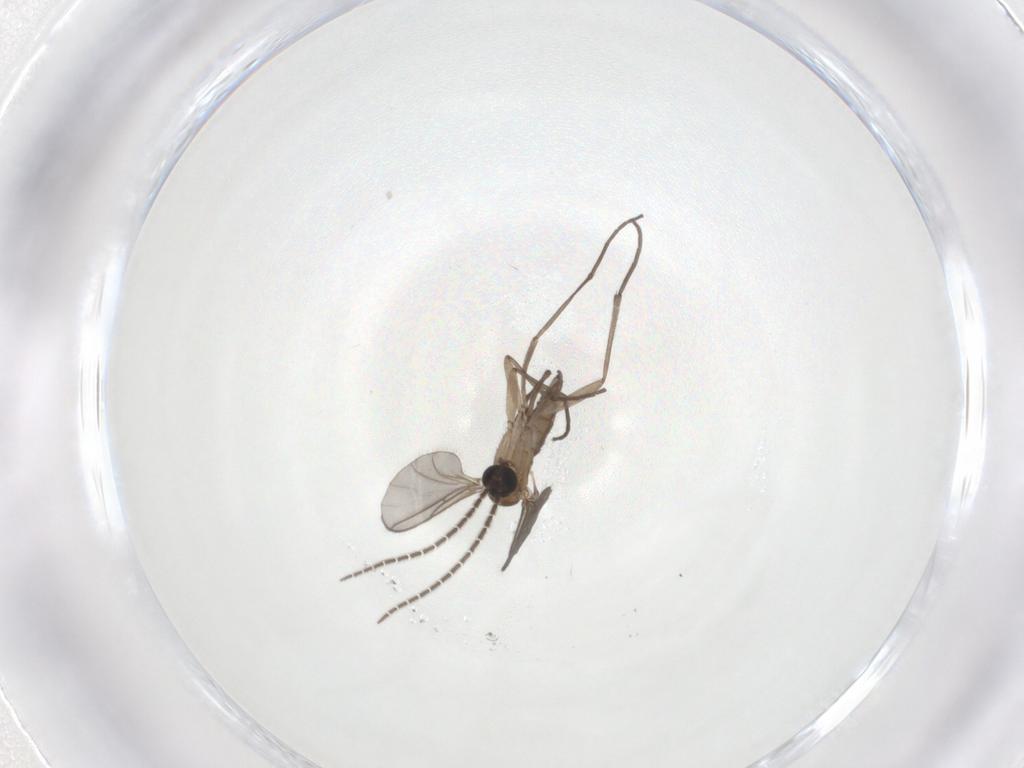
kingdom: Animalia
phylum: Arthropoda
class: Insecta
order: Diptera
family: Sciaridae
